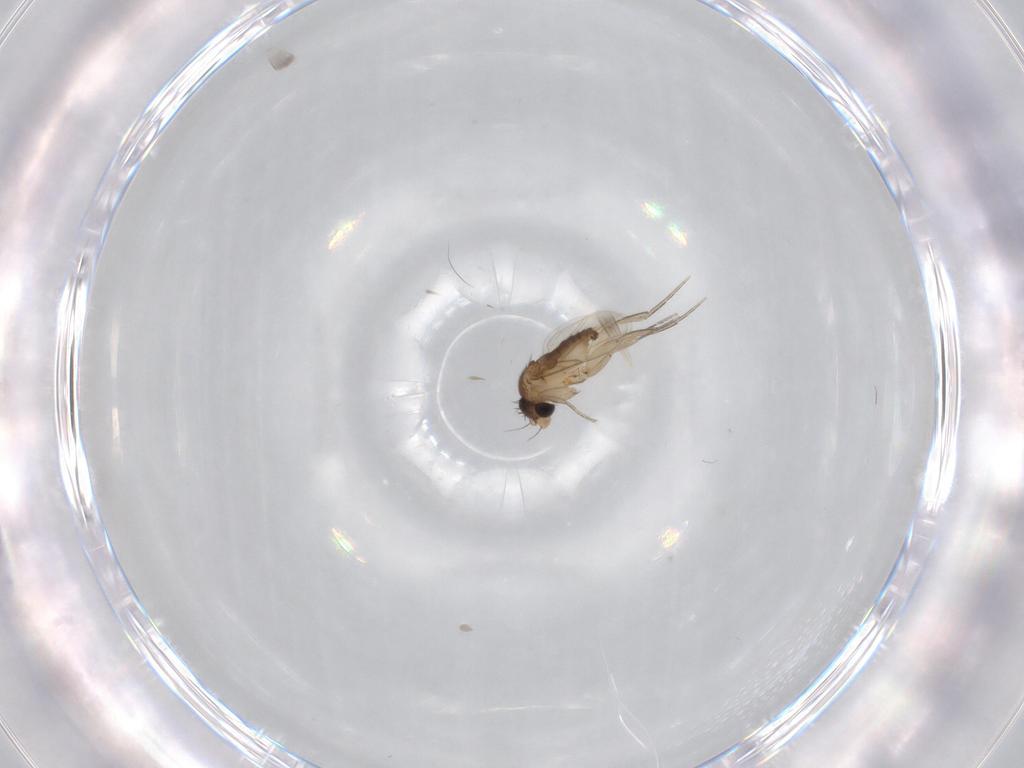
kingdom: Animalia
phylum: Arthropoda
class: Insecta
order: Diptera
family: Phoridae
